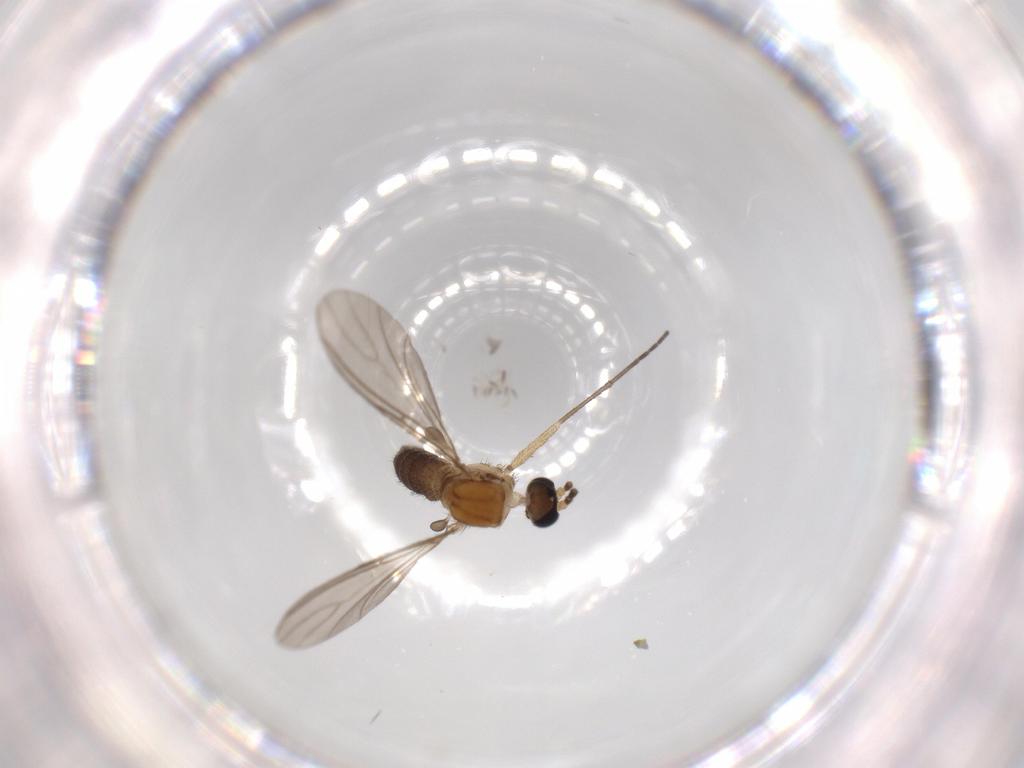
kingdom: Animalia
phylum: Arthropoda
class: Insecta
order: Diptera
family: Sciaridae
